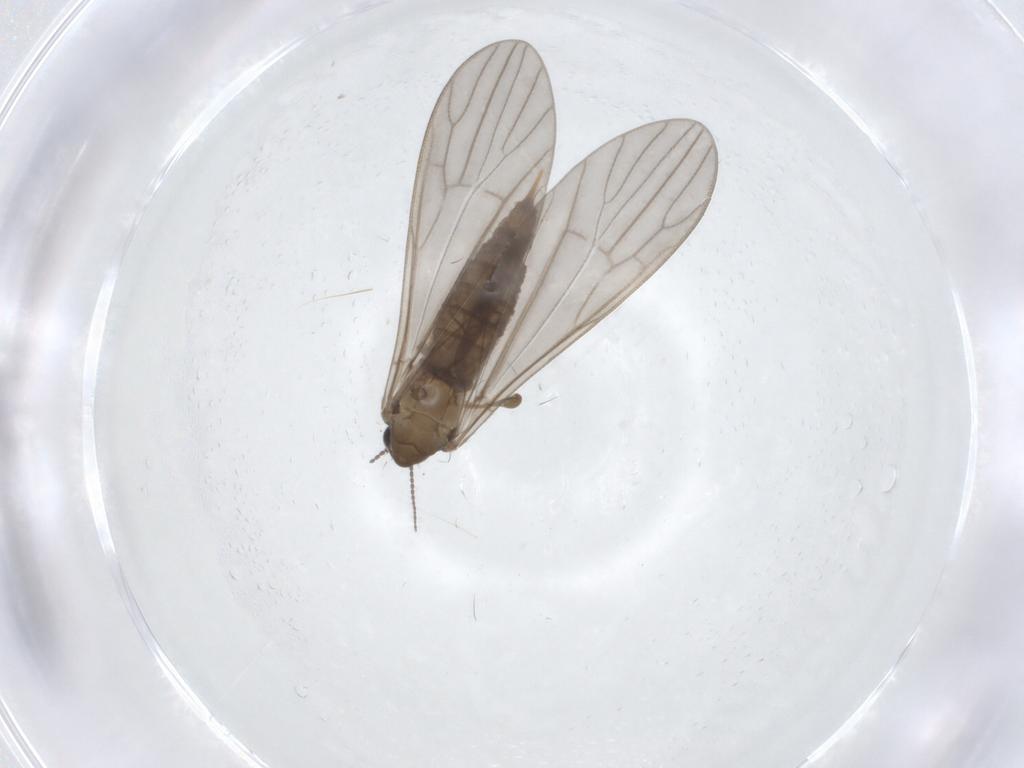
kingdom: Animalia
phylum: Arthropoda
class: Insecta
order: Diptera
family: Limoniidae
